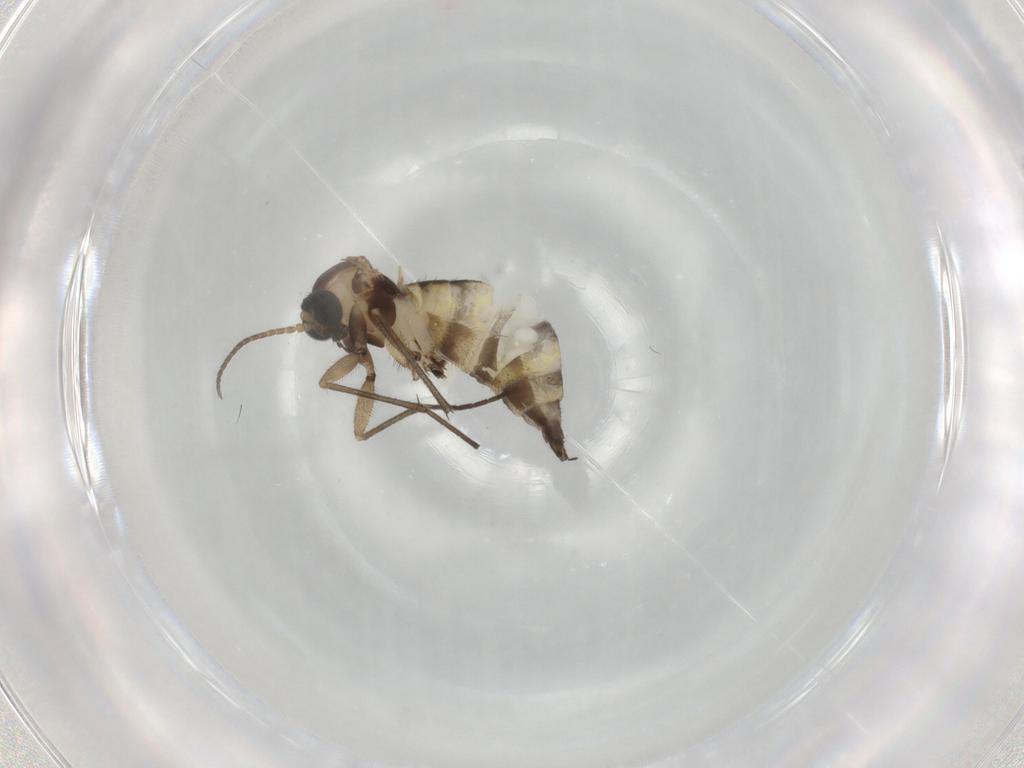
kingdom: Animalia
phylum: Arthropoda
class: Insecta
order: Diptera
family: Sciaridae
